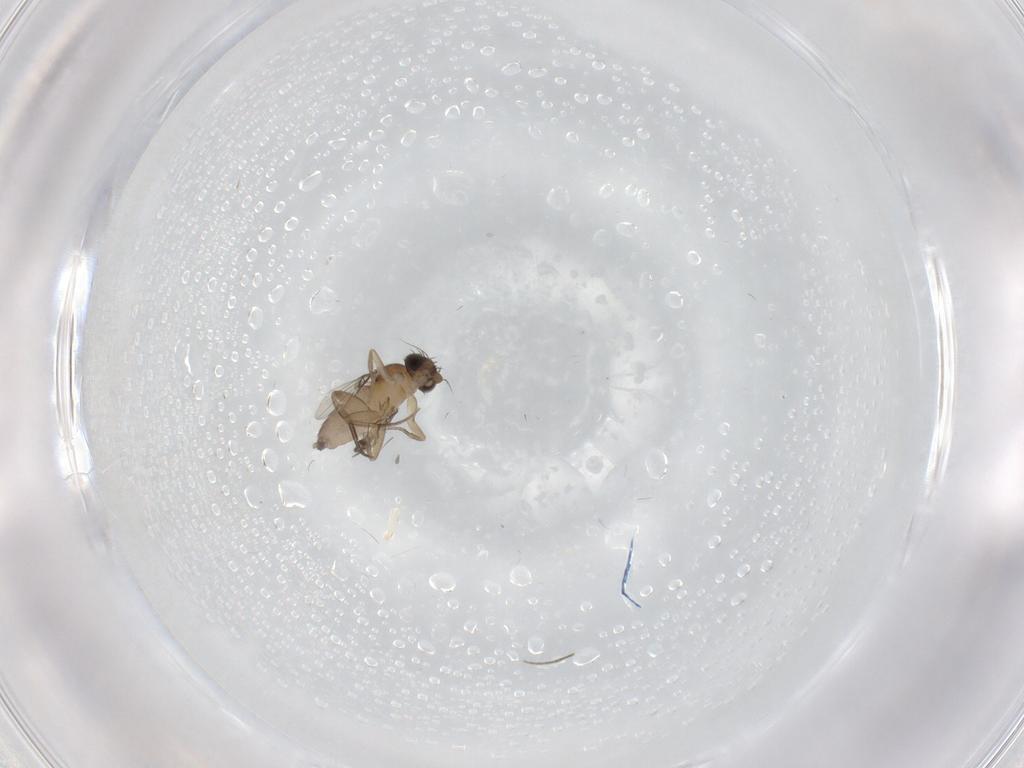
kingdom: Animalia
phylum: Arthropoda
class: Insecta
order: Diptera
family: Phoridae
